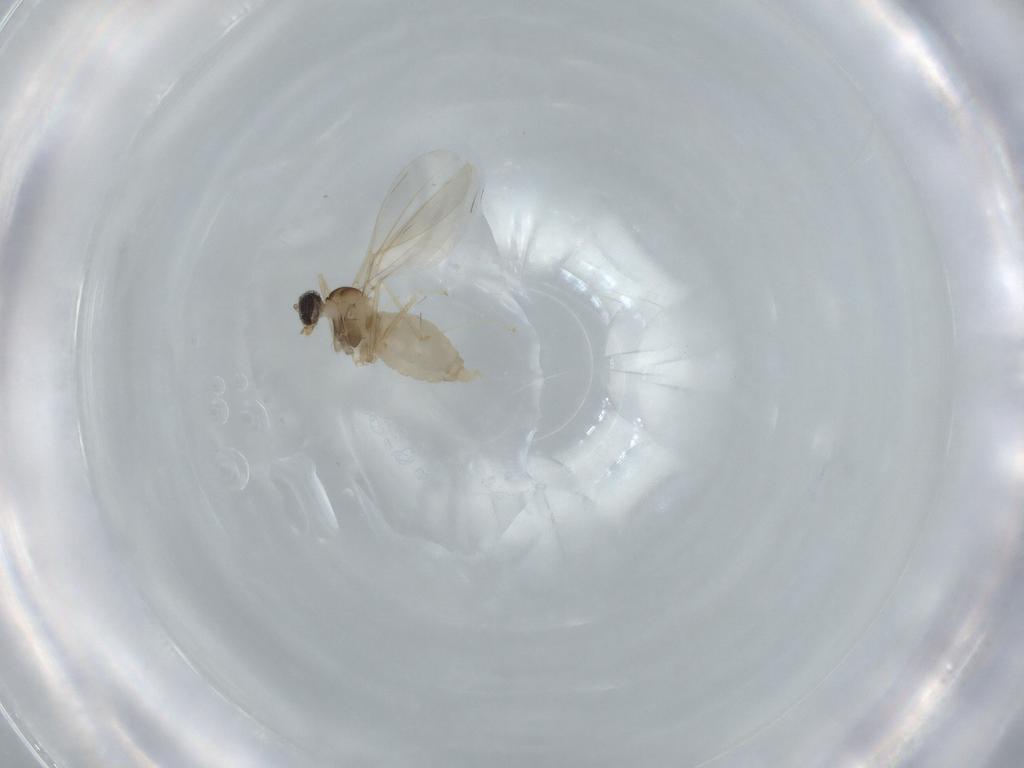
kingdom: Animalia
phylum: Arthropoda
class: Insecta
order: Diptera
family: Cecidomyiidae
